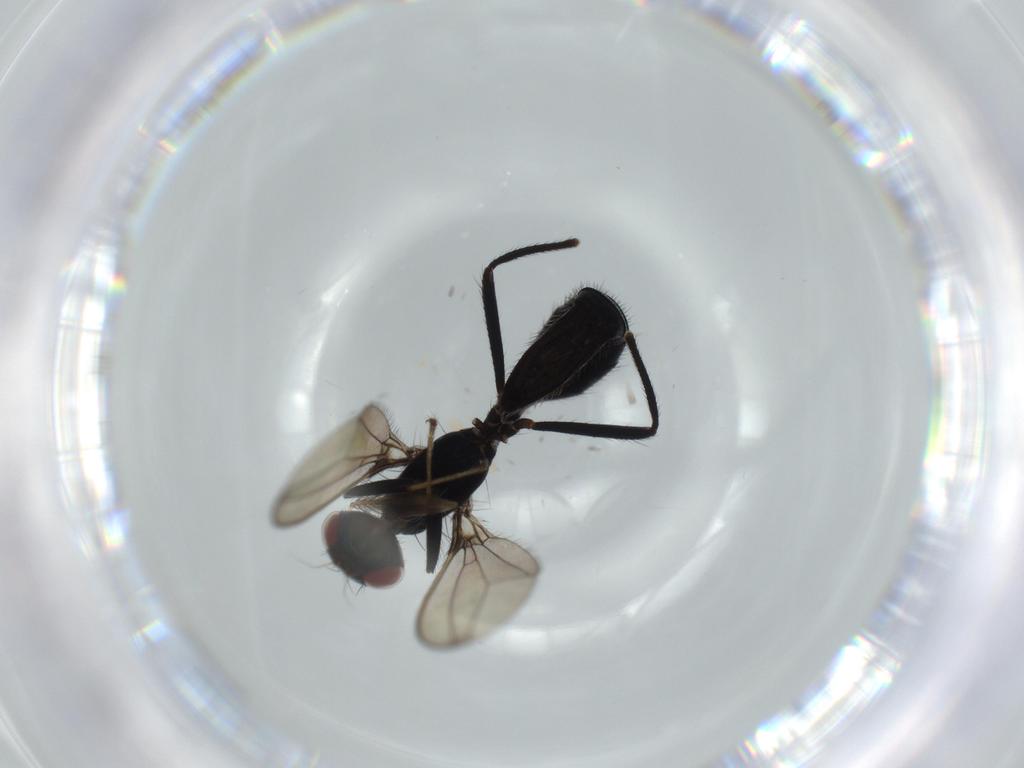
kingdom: Animalia
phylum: Arthropoda
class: Insecta
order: Diptera
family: Richardiidae
